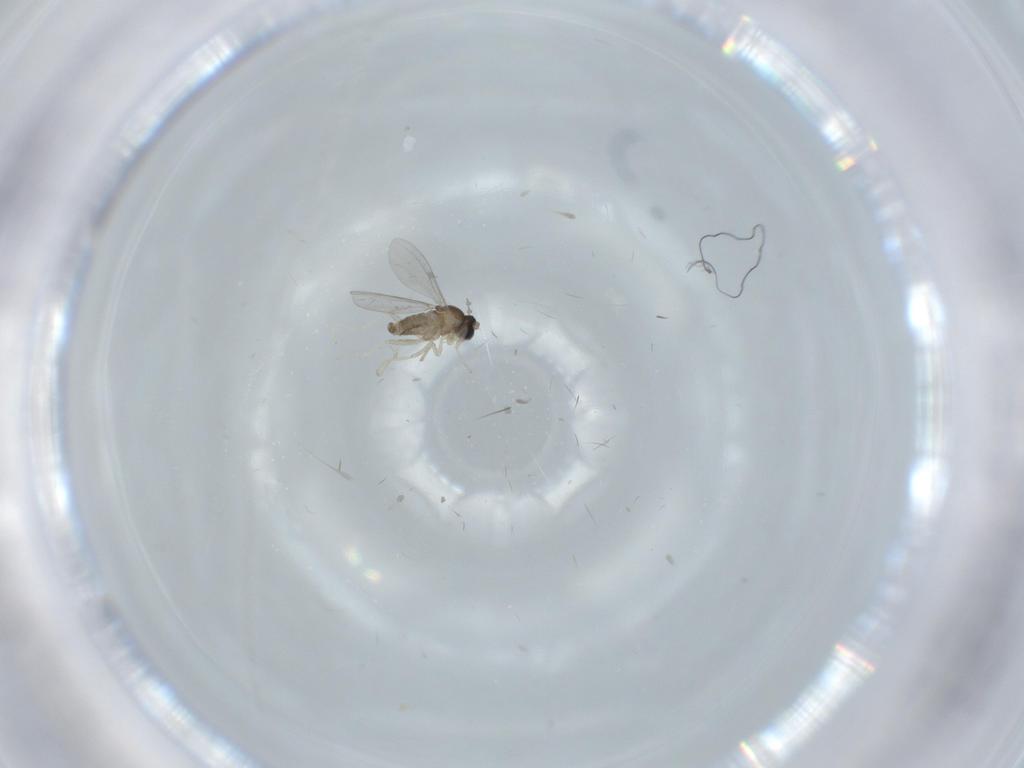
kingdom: Animalia
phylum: Arthropoda
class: Insecta
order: Diptera
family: Cecidomyiidae
